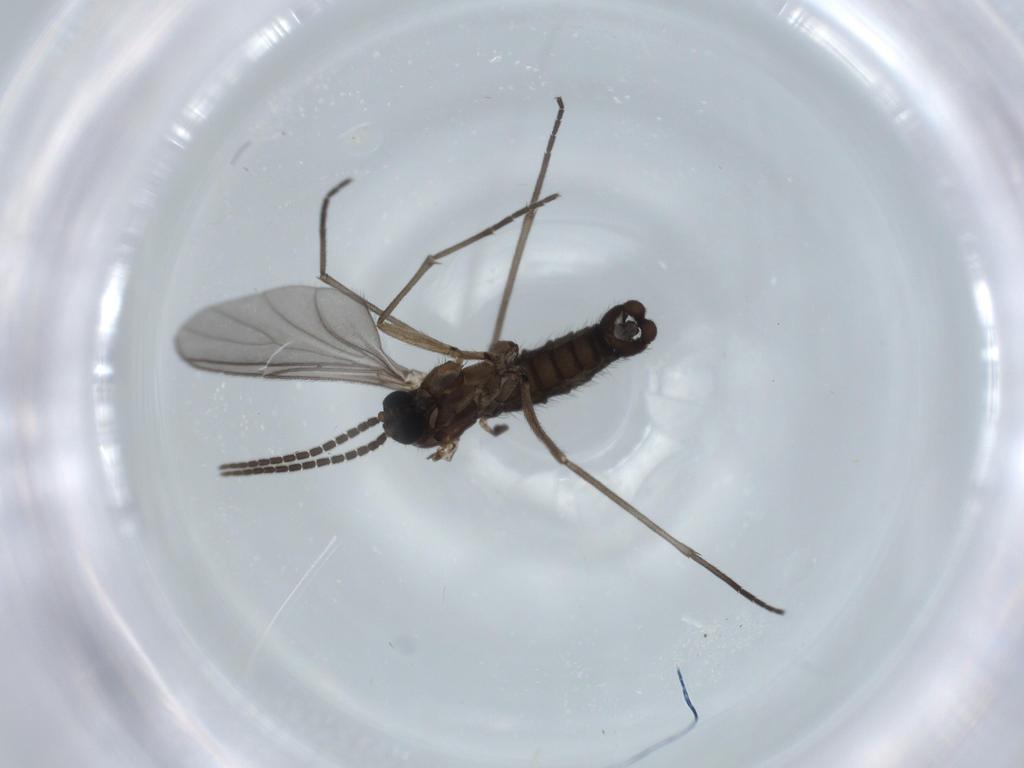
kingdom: Animalia
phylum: Arthropoda
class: Insecta
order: Diptera
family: Sciaridae
